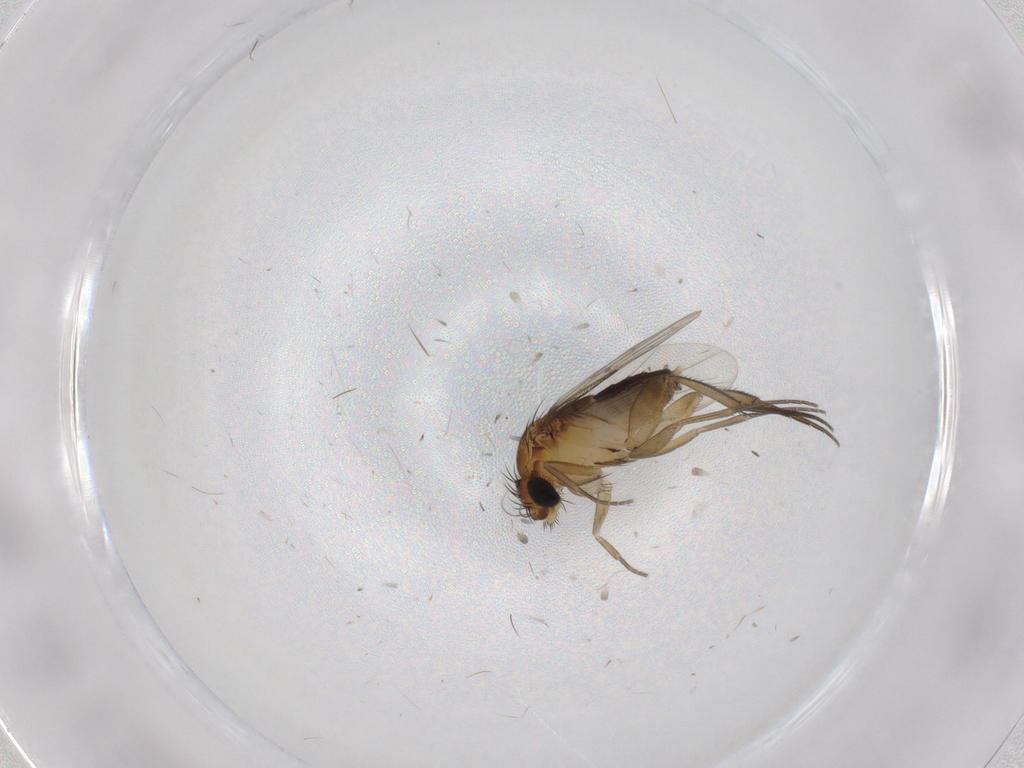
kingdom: Animalia
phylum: Arthropoda
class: Insecta
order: Diptera
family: Phoridae
